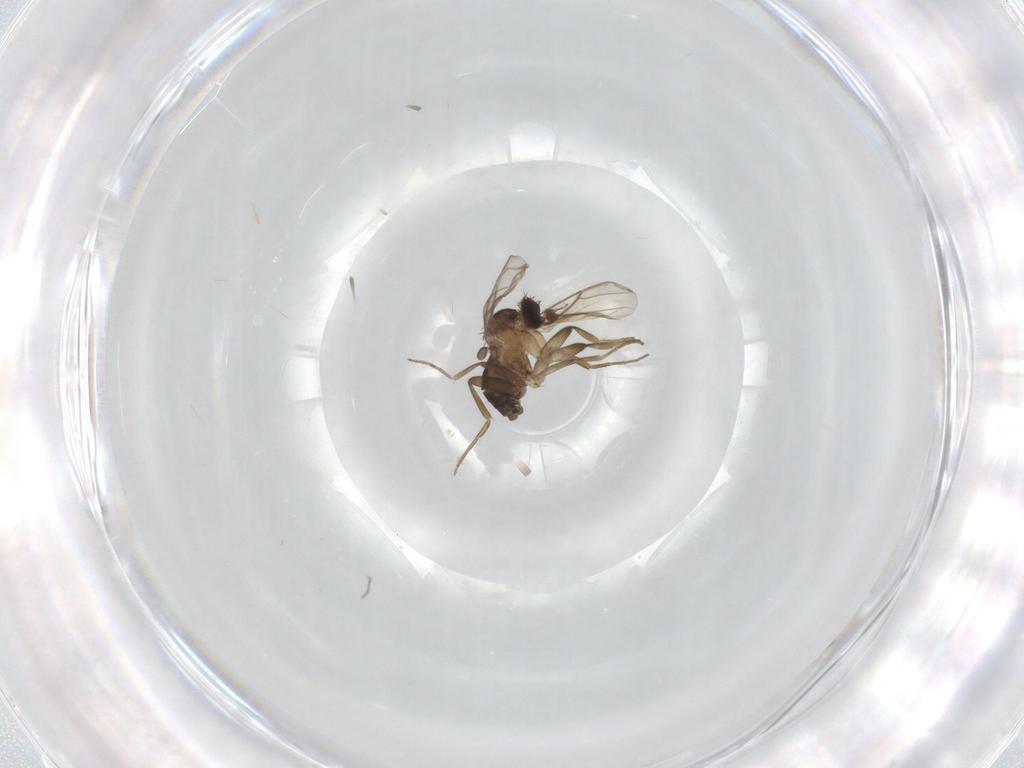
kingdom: Animalia
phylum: Arthropoda
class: Insecta
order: Diptera
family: Phoridae
